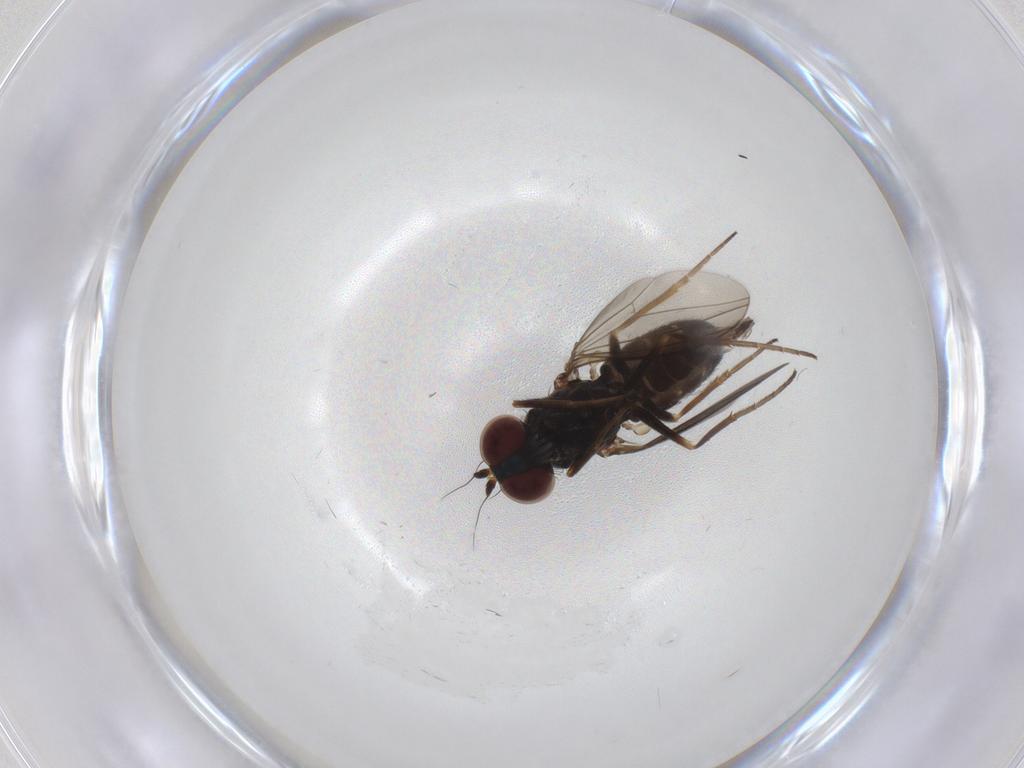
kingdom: Animalia
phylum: Arthropoda
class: Insecta
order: Diptera
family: Dolichopodidae
